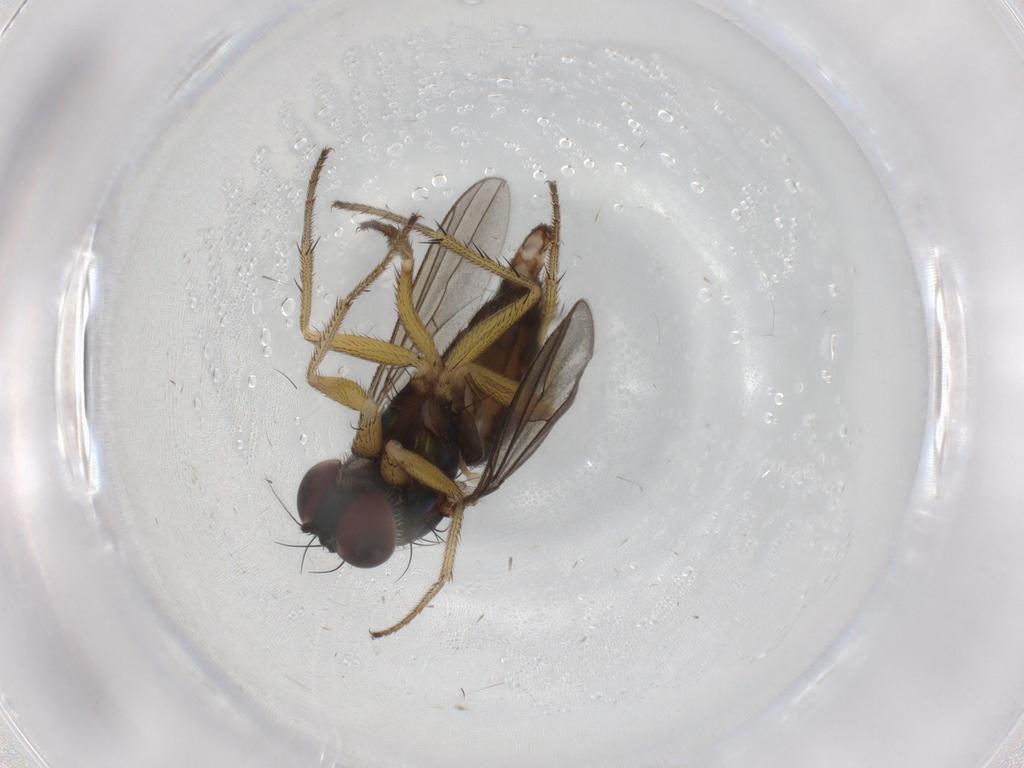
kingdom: Animalia
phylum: Arthropoda
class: Insecta
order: Diptera
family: Dolichopodidae
